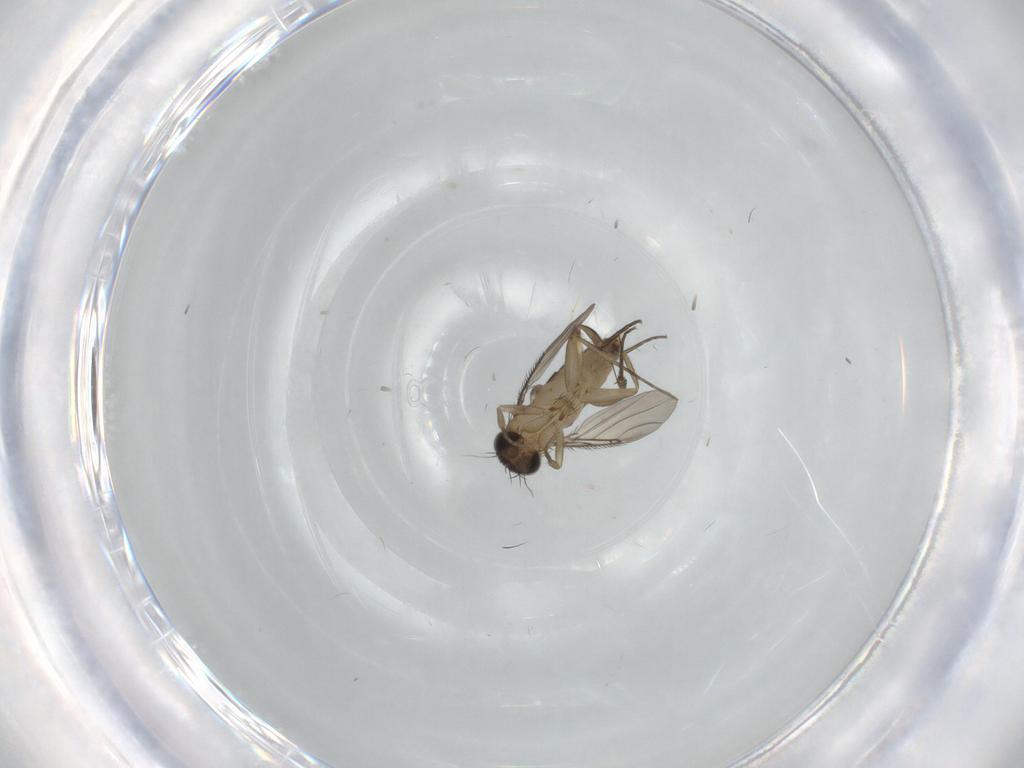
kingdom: Animalia
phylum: Arthropoda
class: Insecta
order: Diptera
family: Phoridae
